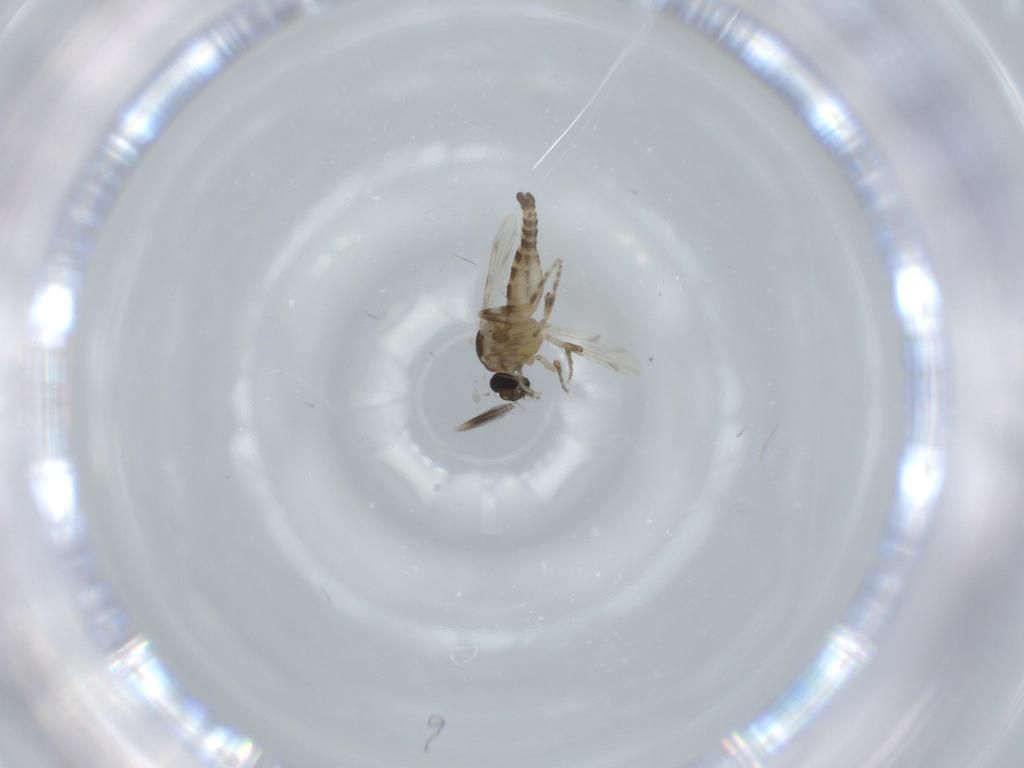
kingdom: Animalia
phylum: Arthropoda
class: Insecta
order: Diptera
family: Ceratopogonidae
